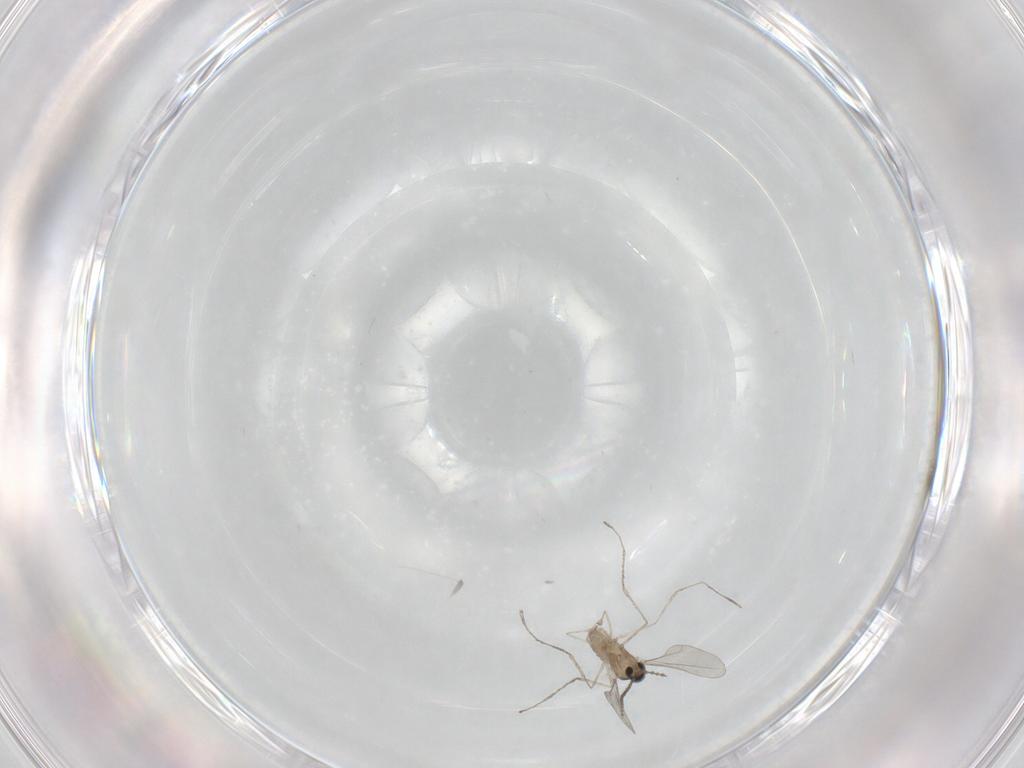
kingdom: Animalia
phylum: Arthropoda
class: Insecta
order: Diptera
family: Cecidomyiidae
